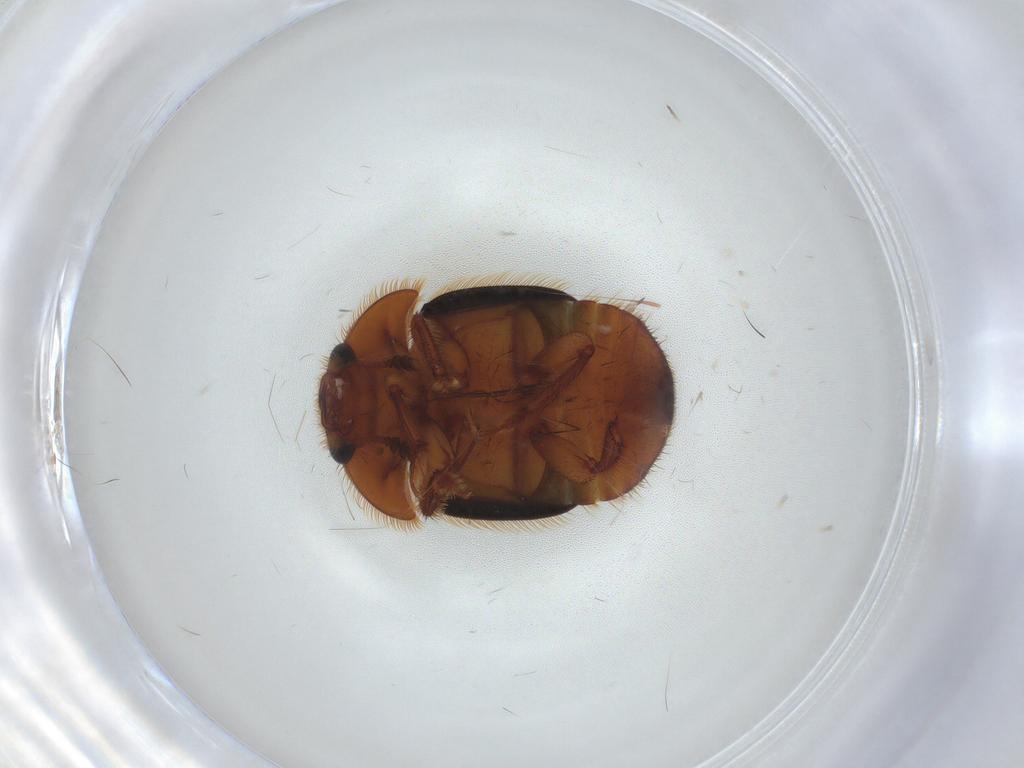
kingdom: Animalia
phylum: Arthropoda
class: Insecta
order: Coleoptera
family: Nitidulidae
